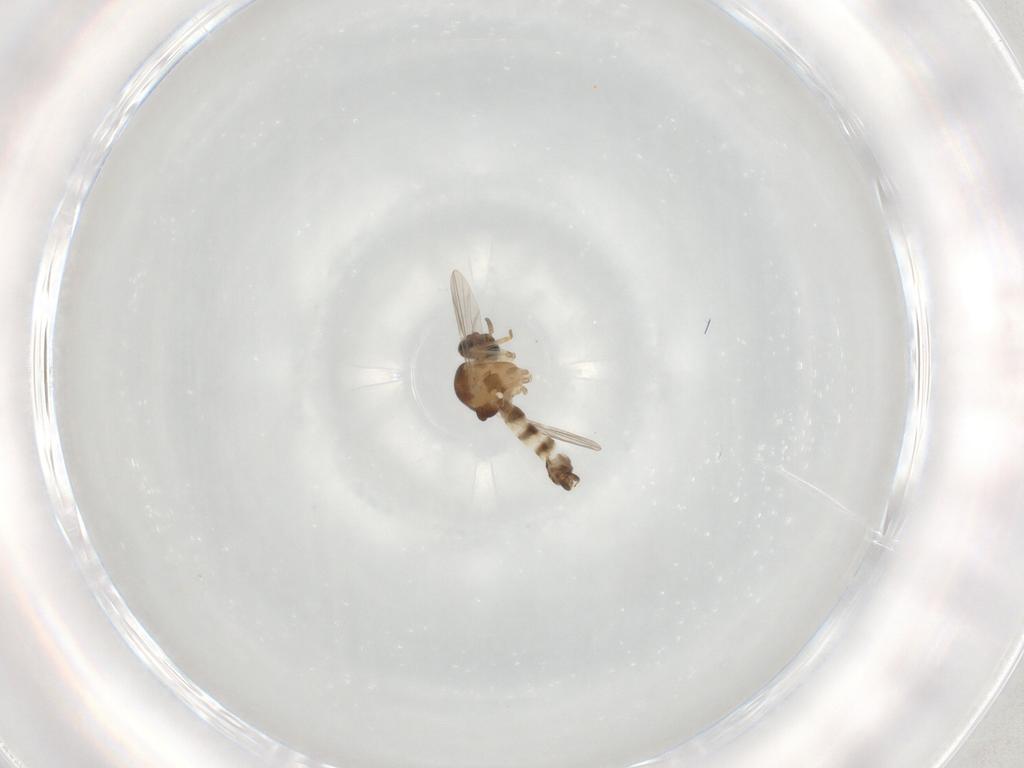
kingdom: Animalia
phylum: Arthropoda
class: Insecta
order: Diptera
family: Ceratopogonidae
